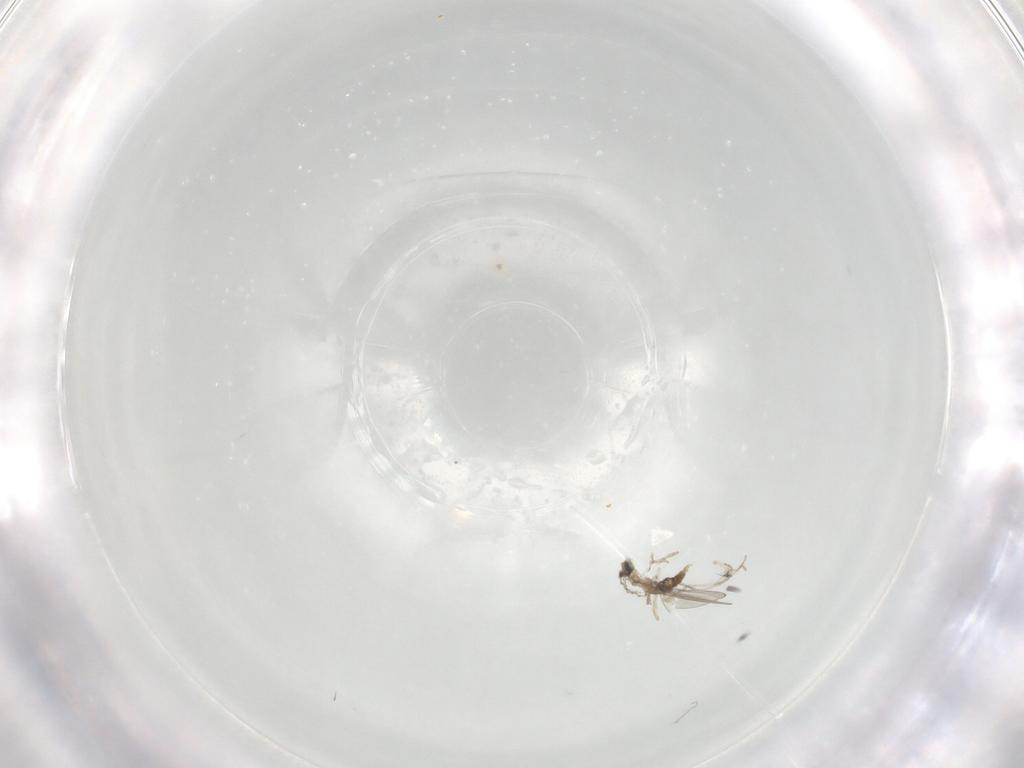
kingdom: Animalia
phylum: Arthropoda
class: Insecta
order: Diptera
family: Cecidomyiidae
